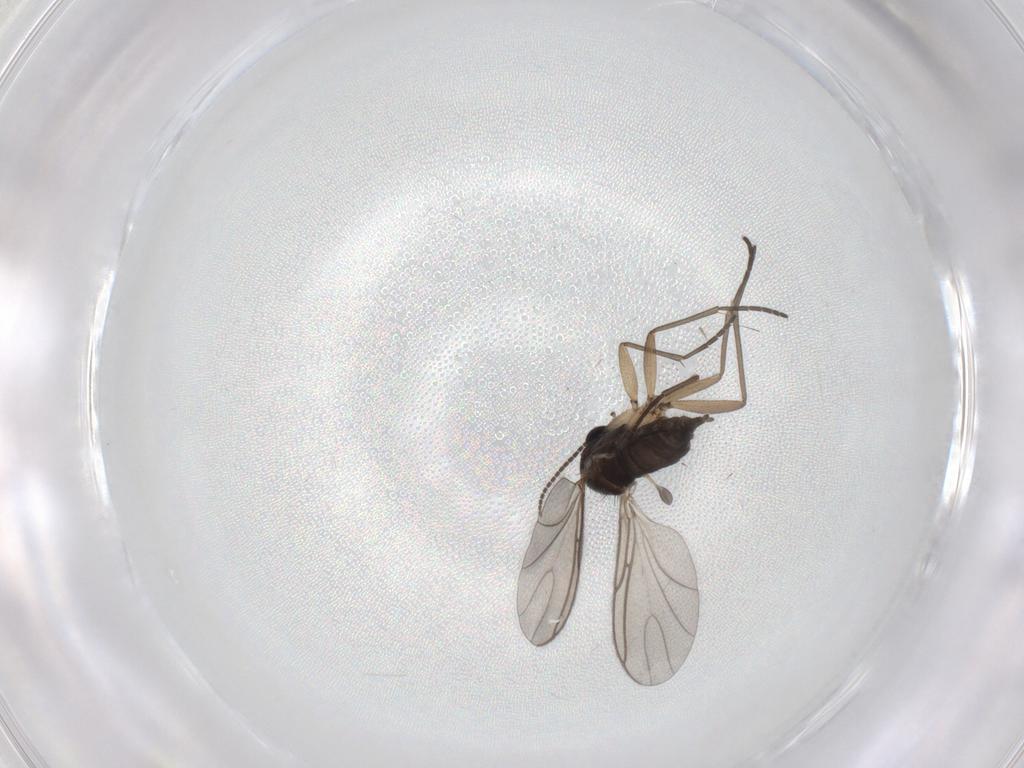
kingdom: Animalia
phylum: Arthropoda
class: Insecta
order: Diptera
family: Sciaridae
